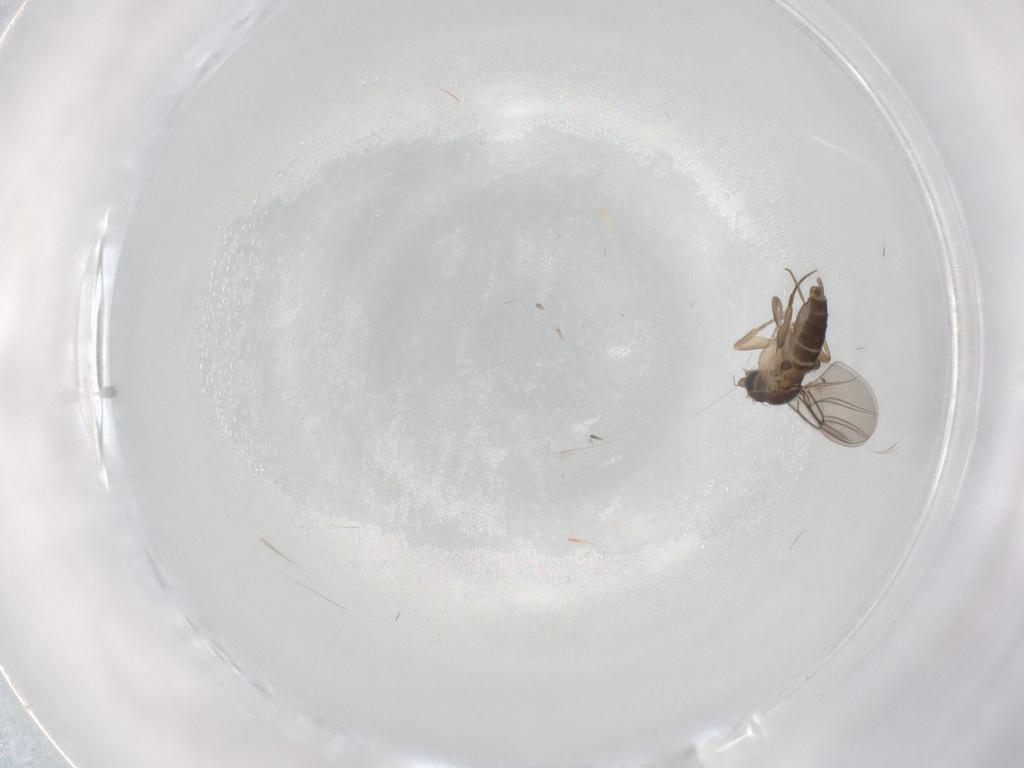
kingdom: Animalia
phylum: Arthropoda
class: Insecta
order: Diptera
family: Phoridae
